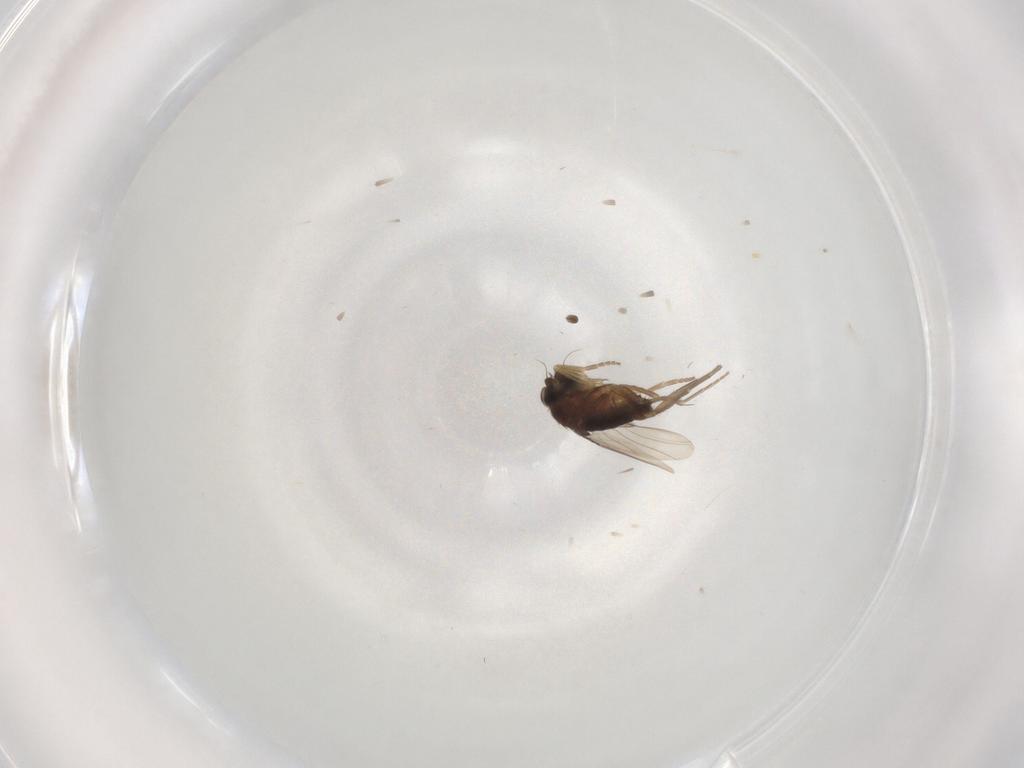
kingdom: Animalia
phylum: Arthropoda
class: Insecta
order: Diptera
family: Phoridae
